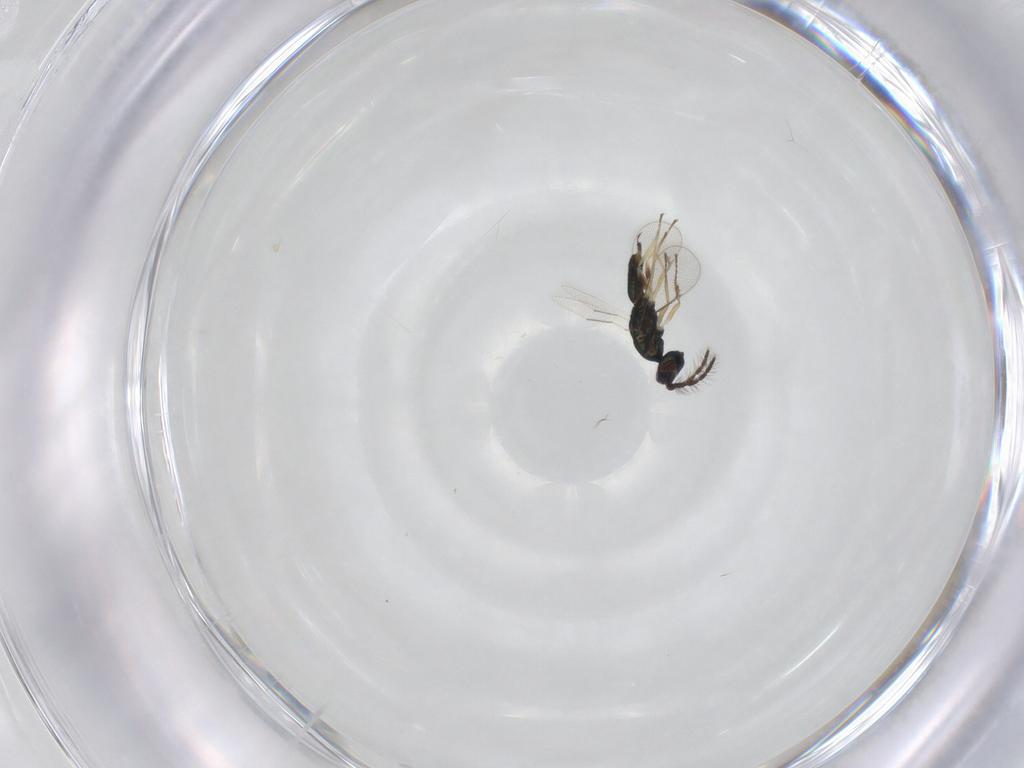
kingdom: Animalia
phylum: Arthropoda
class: Insecta
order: Hymenoptera
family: Eulophidae
